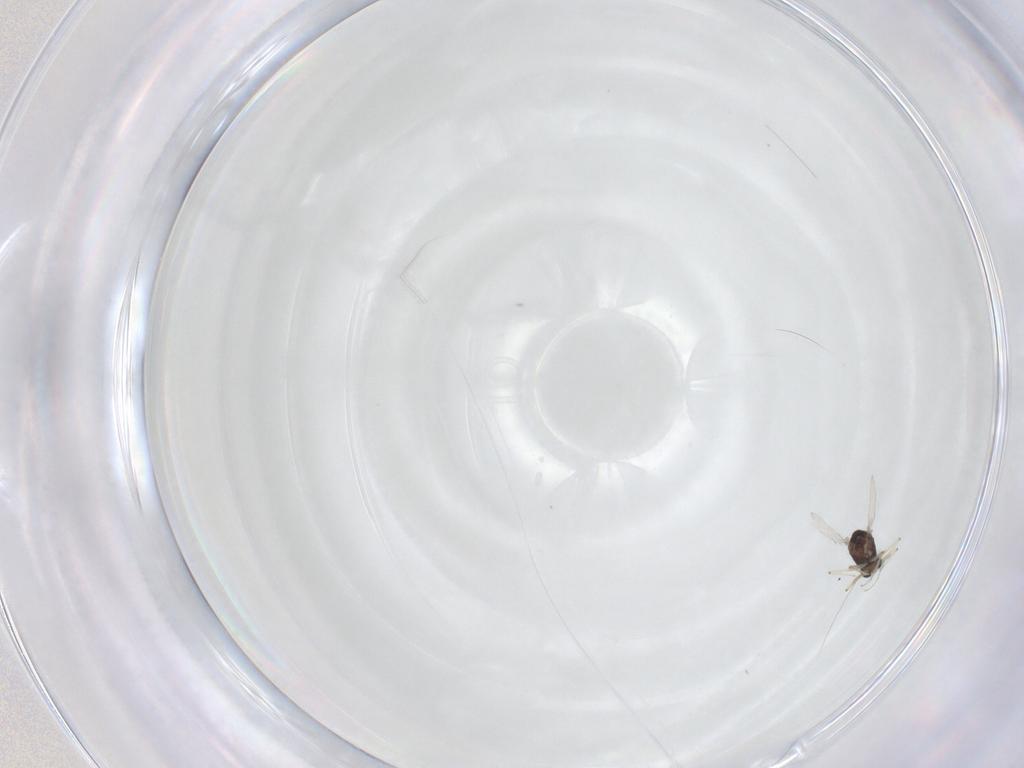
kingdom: Animalia
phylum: Arthropoda
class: Insecta
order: Diptera
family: Chironomidae
